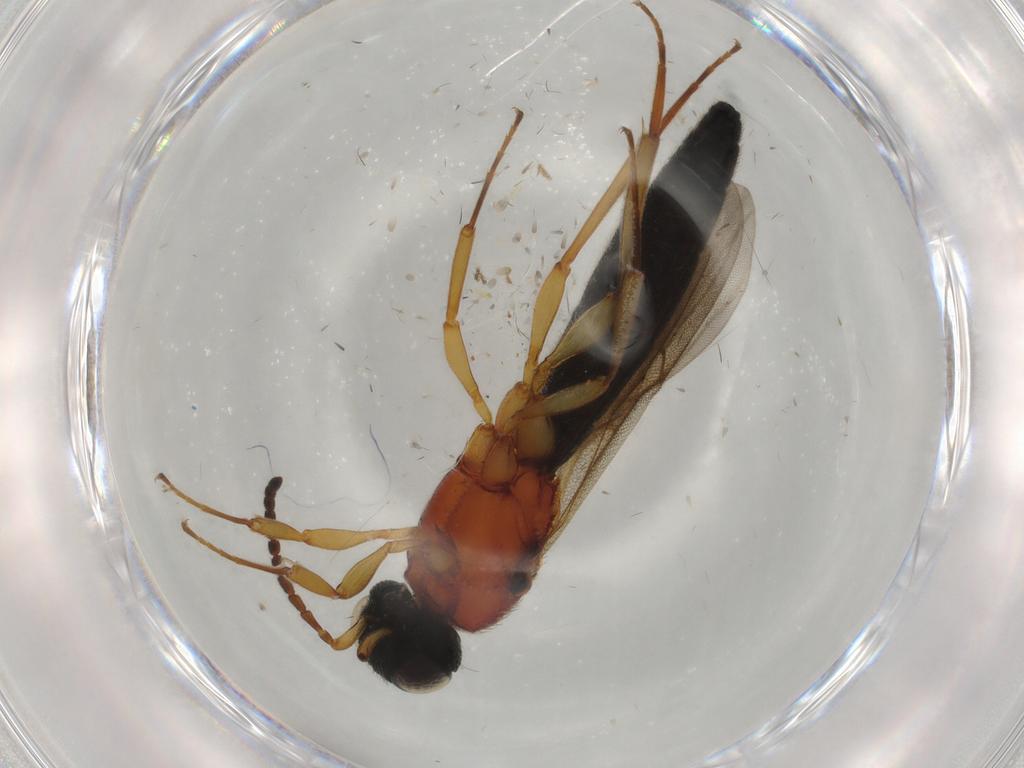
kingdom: Animalia
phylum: Arthropoda
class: Insecta
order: Hymenoptera
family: Scelionidae
